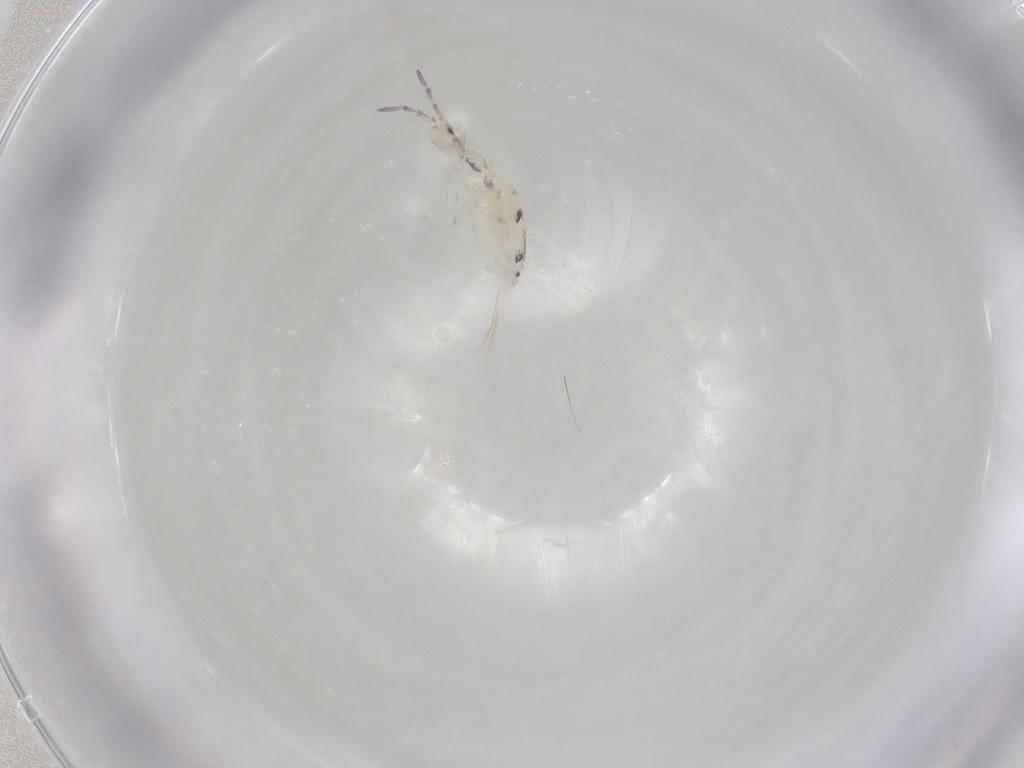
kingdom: Animalia
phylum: Arthropoda
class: Collembola
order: Entomobryomorpha
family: Entomobryidae
